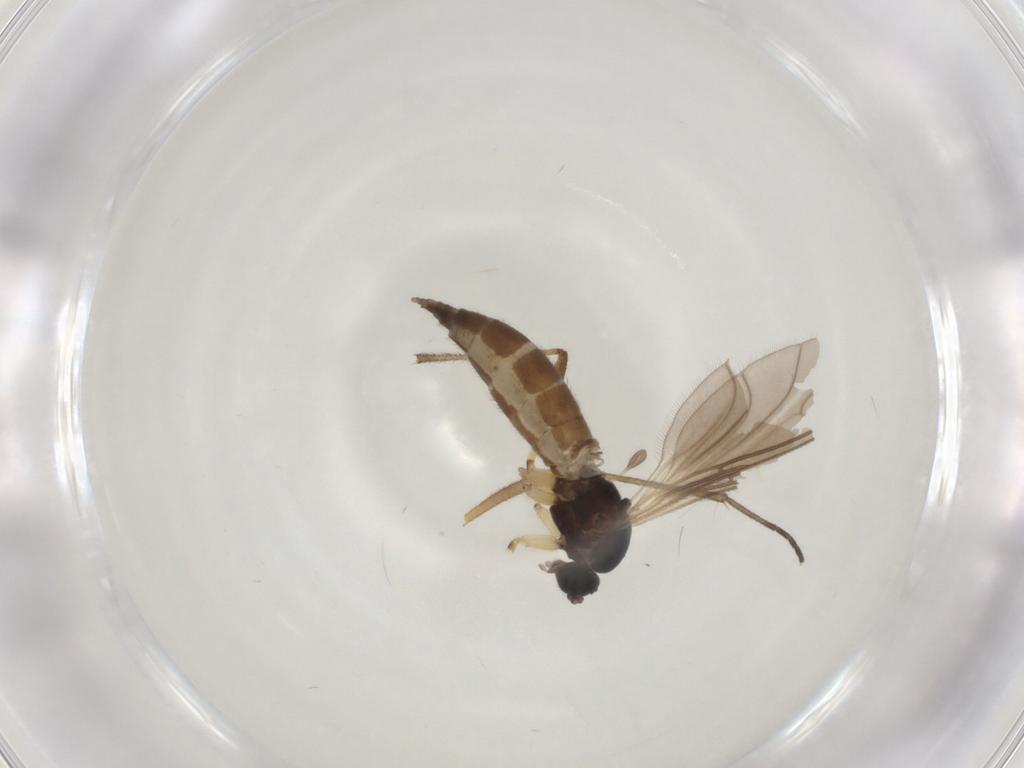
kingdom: Animalia
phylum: Arthropoda
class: Insecta
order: Diptera
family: Sciaridae
